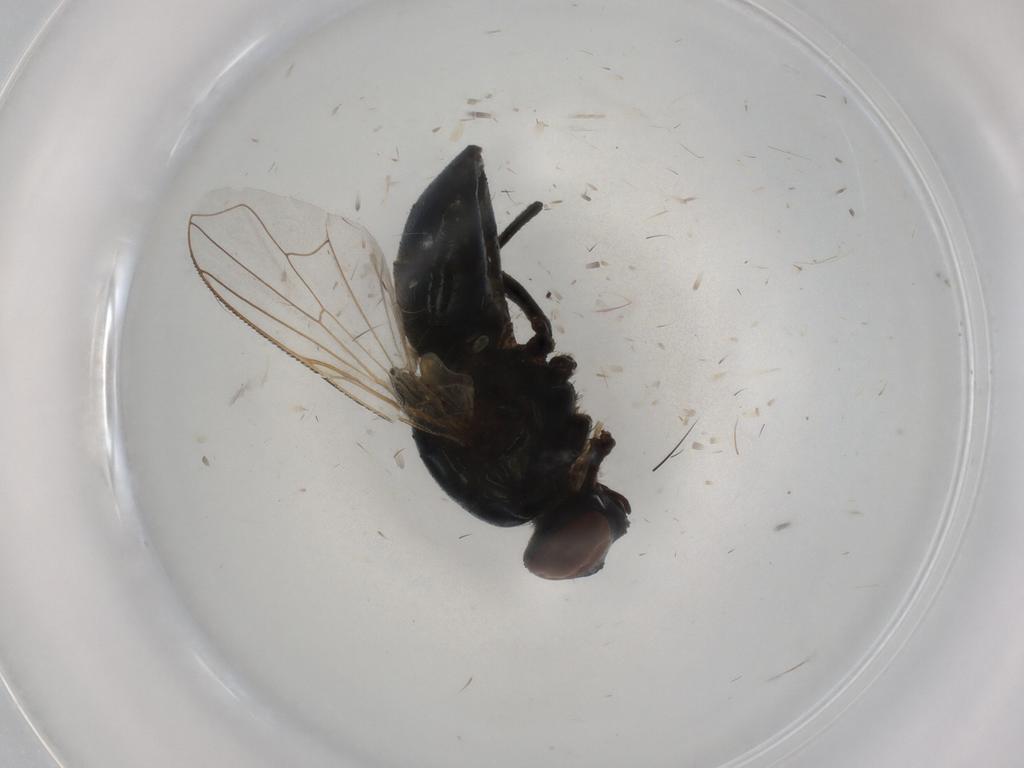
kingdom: Animalia
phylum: Arthropoda
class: Insecta
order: Diptera
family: Muscidae
